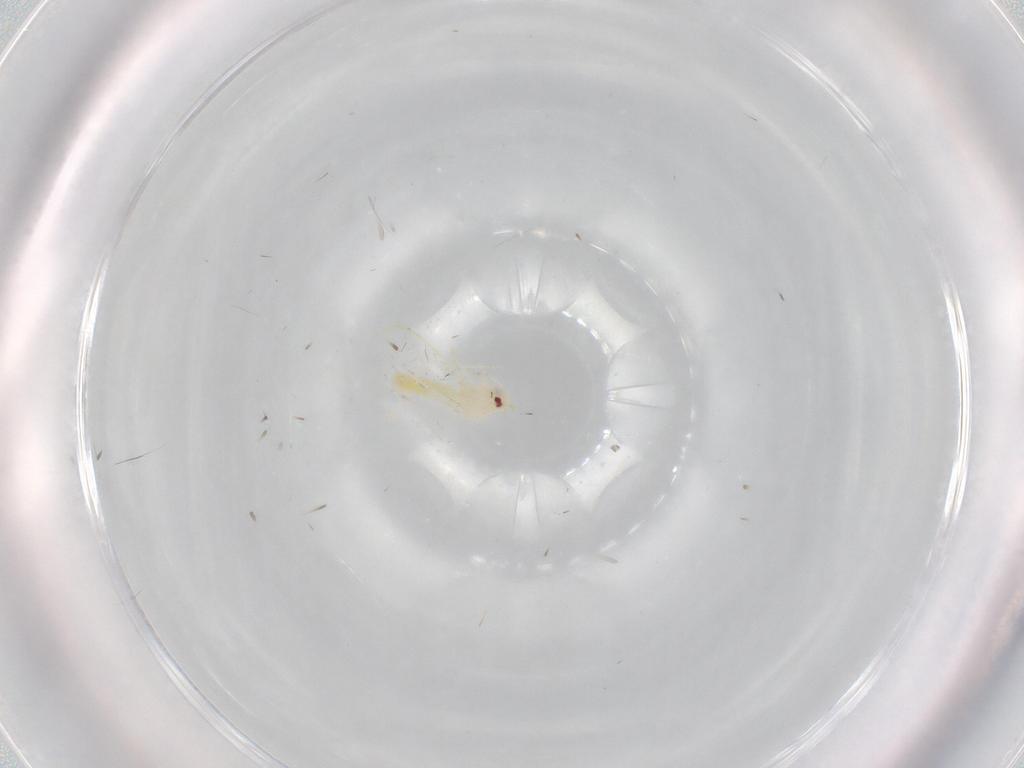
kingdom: Animalia
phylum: Arthropoda
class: Insecta
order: Hemiptera
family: Aleyrodidae
